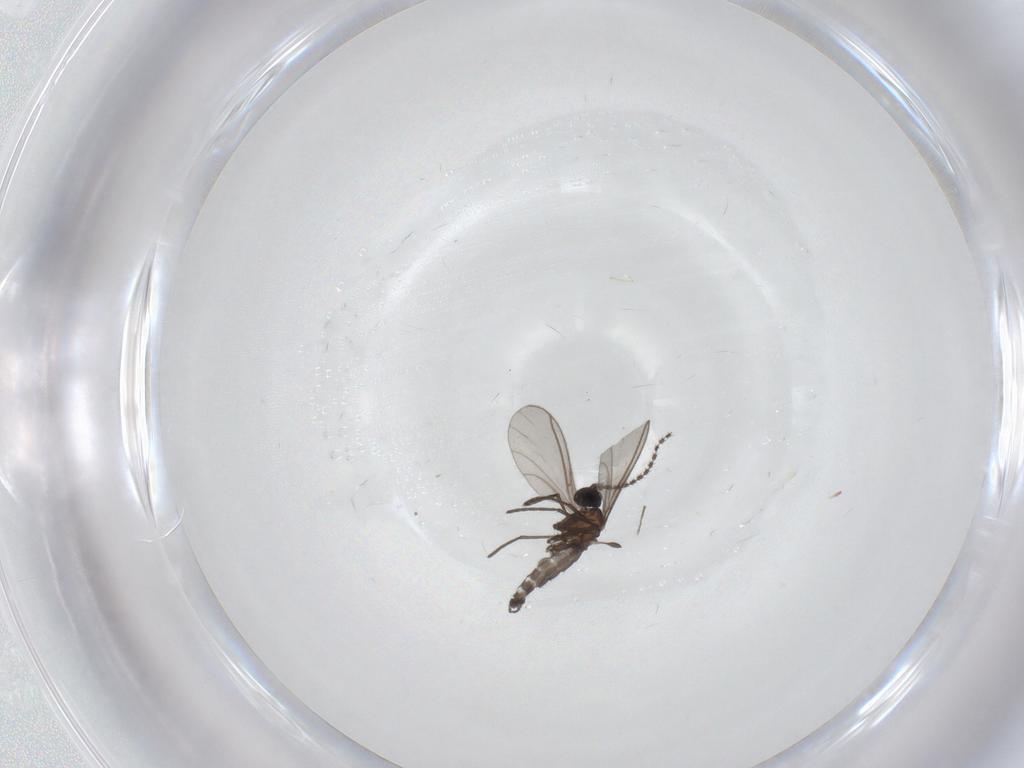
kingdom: Animalia
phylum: Arthropoda
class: Insecta
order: Diptera
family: Cecidomyiidae
